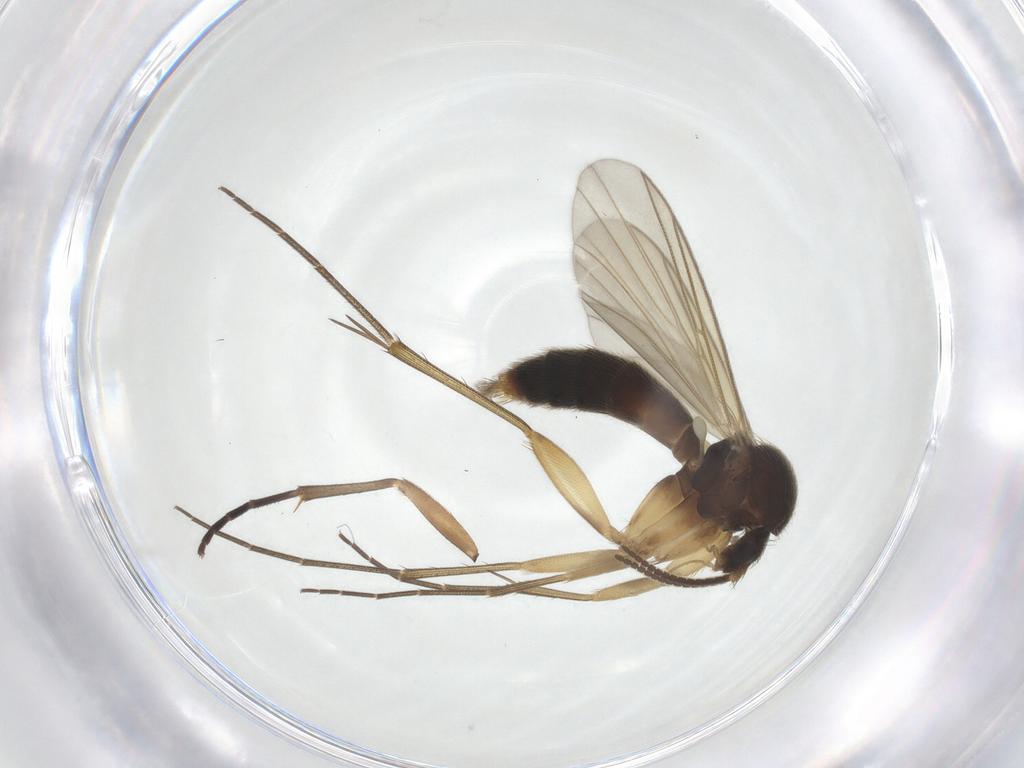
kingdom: Animalia
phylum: Arthropoda
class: Insecta
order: Diptera
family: Mycetophilidae
